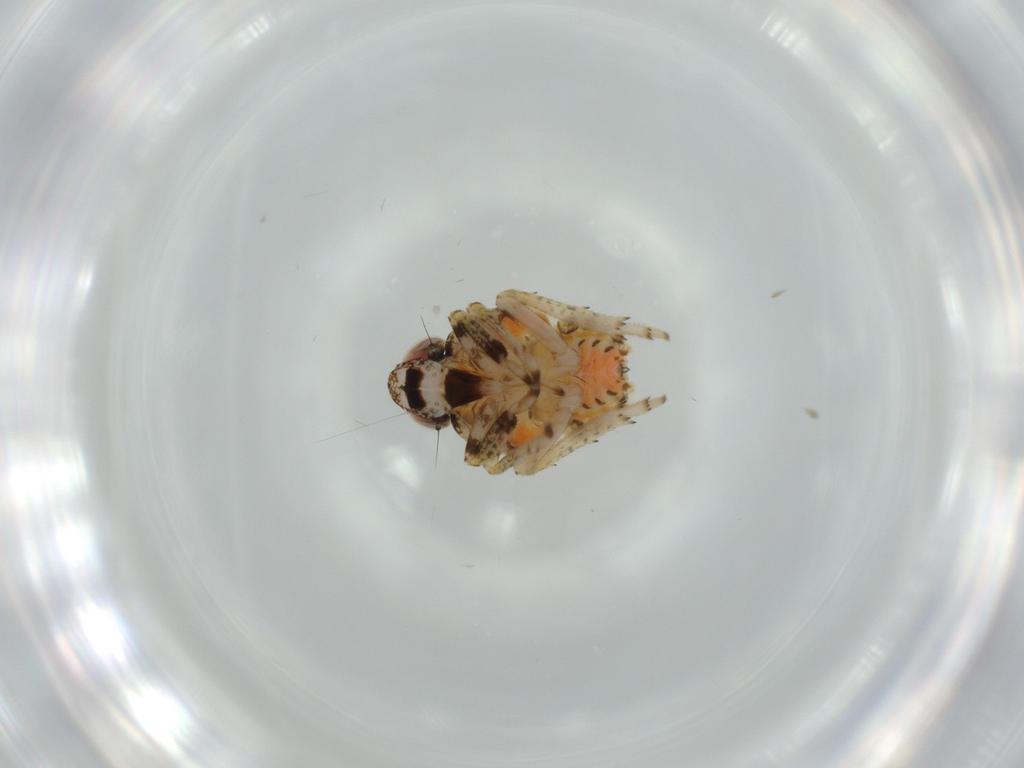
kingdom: Animalia
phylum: Arthropoda
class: Insecta
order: Hemiptera
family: Issidae
